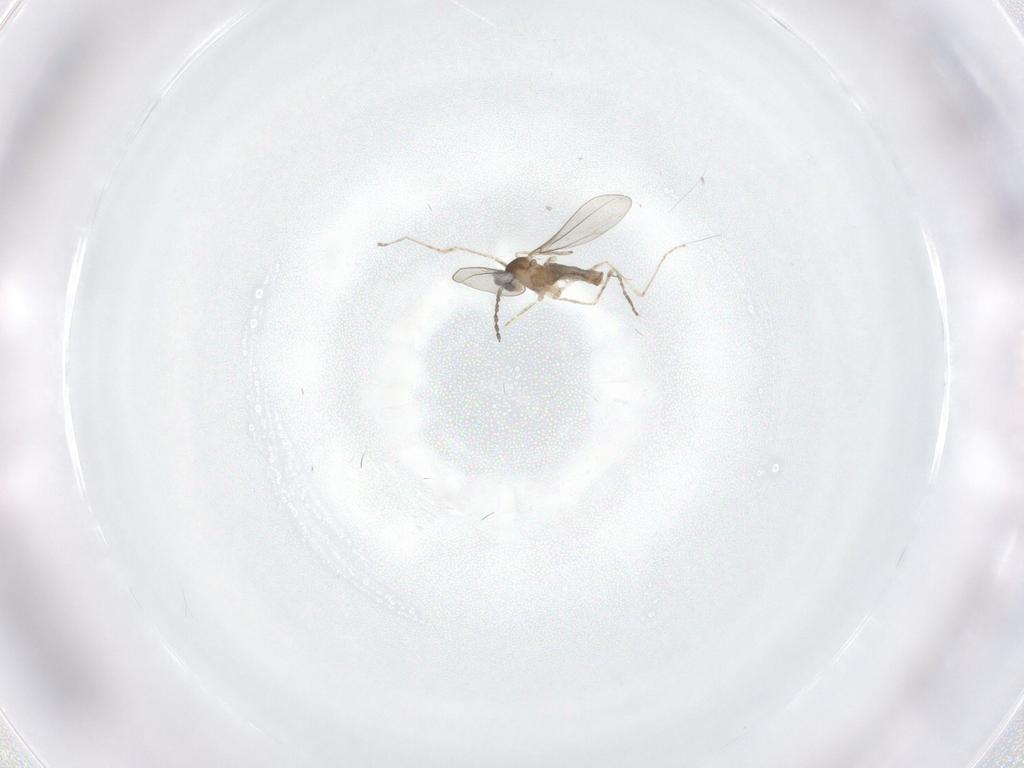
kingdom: Animalia
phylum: Arthropoda
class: Insecta
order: Diptera
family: Cecidomyiidae
